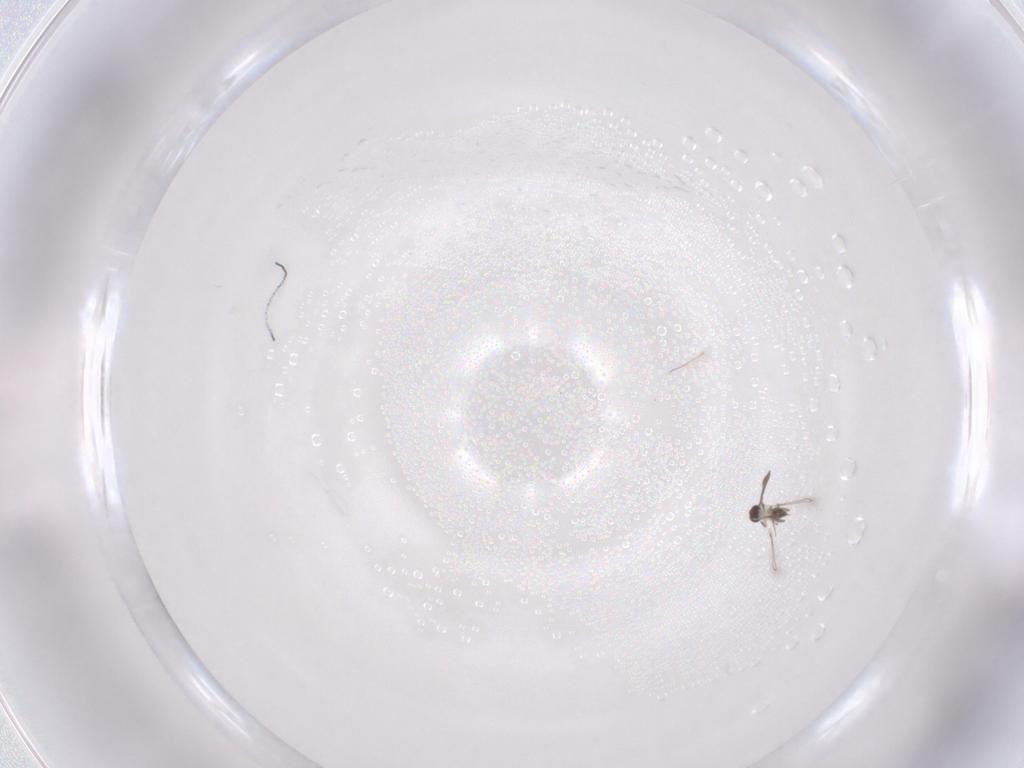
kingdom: Animalia
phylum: Arthropoda
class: Insecta
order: Hymenoptera
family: Mymaridae
